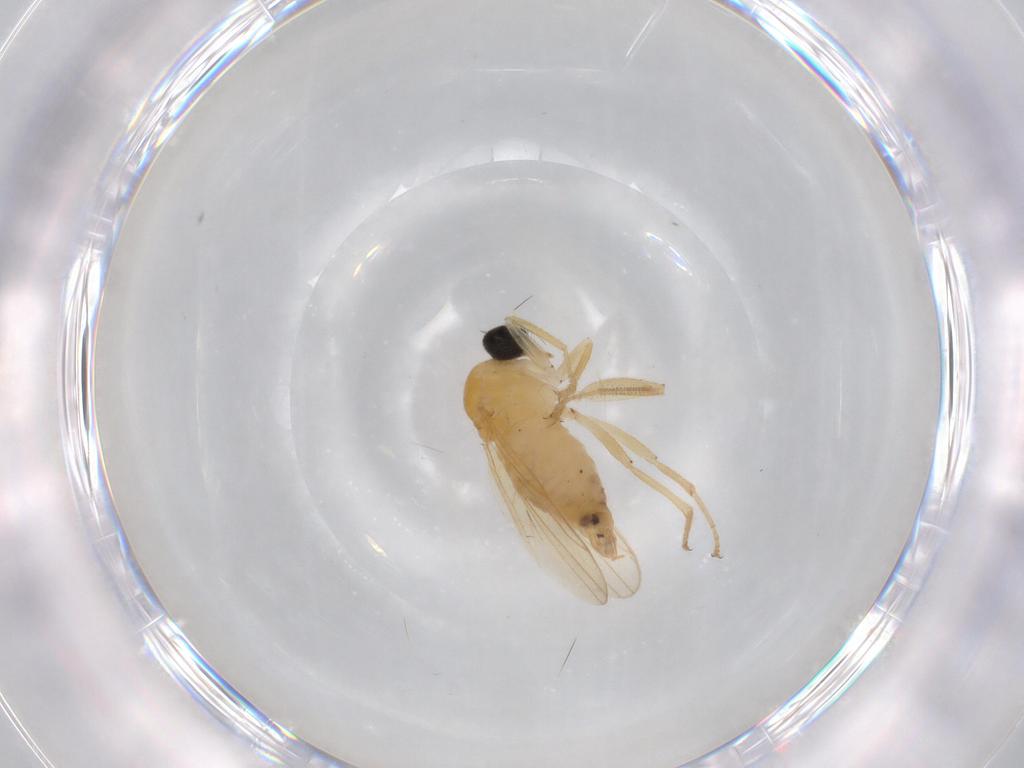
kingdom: Animalia
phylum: Arthropoda
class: Insecta
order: Diptera
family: Hybotidae
